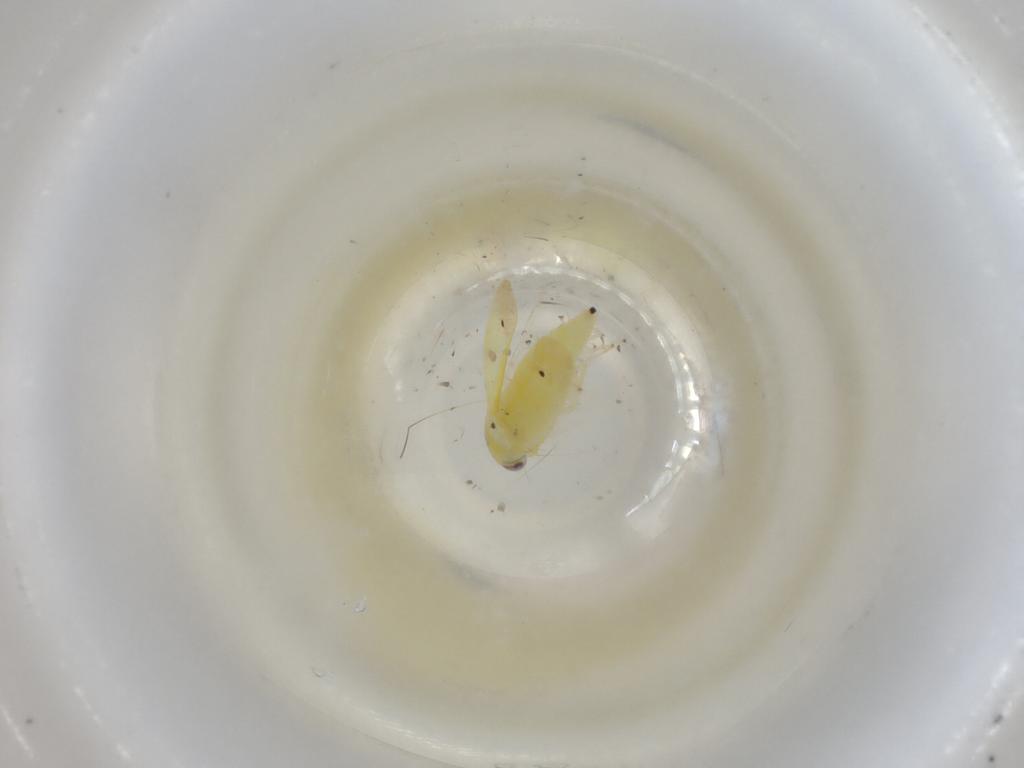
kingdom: Animalia
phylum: Arthropoda
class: Insecta
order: Hemiptera
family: Cicadellidae
